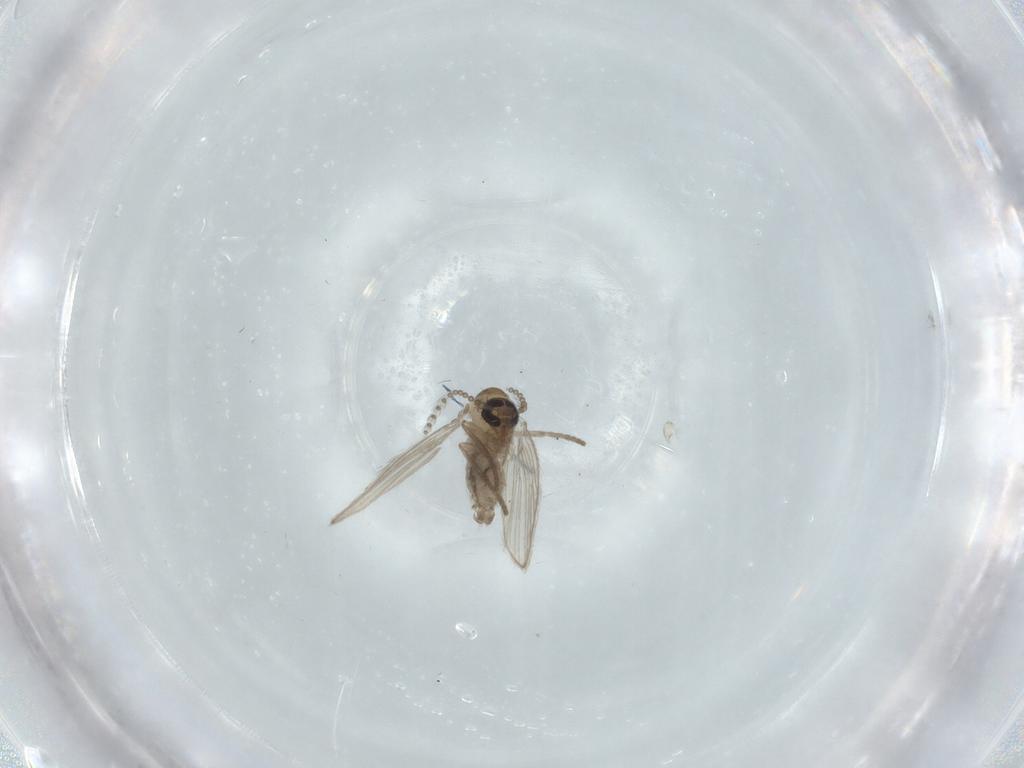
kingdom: Animalia
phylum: Arthropoda
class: Insecta
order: Diptera
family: Psychodidae
